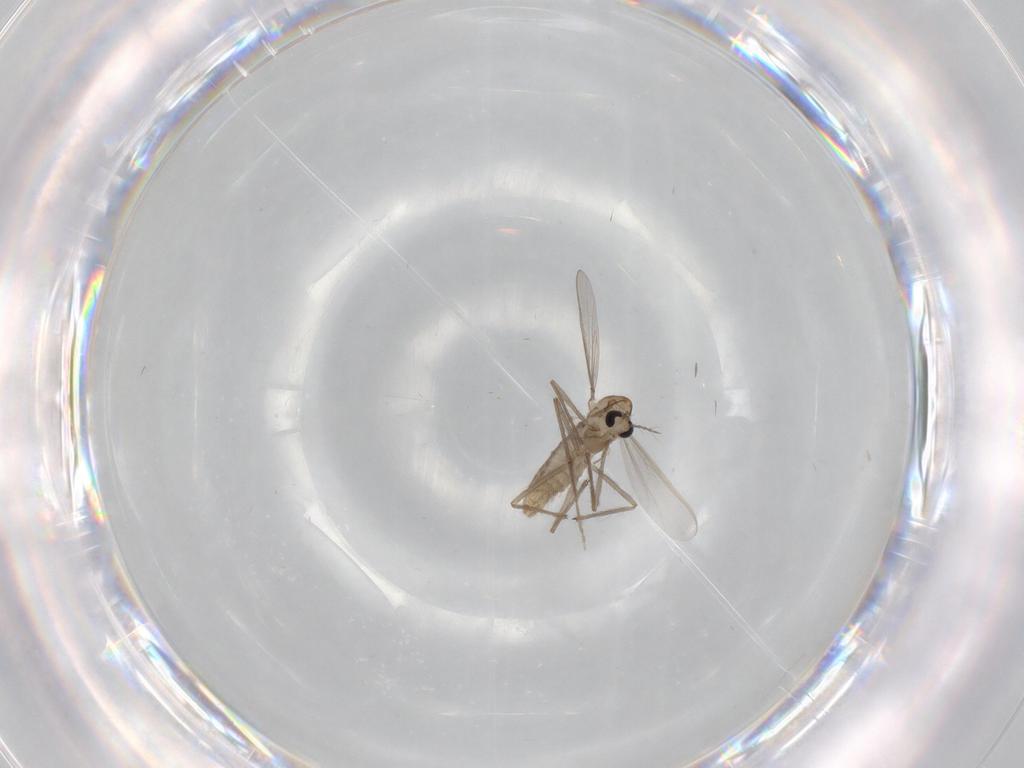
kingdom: Animalia
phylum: Arthropoda
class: Insecta
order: Diptera
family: Chironomidae
